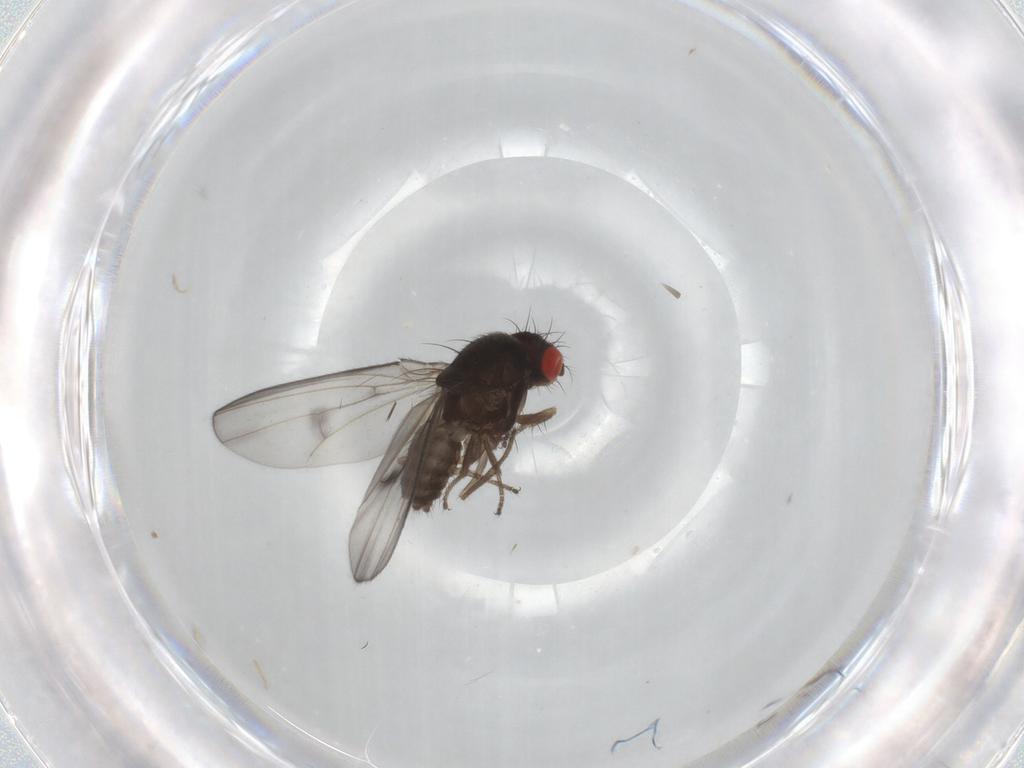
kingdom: Animalia
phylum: Arthropoda
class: Insecta
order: Diptera
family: Drosophilidae
